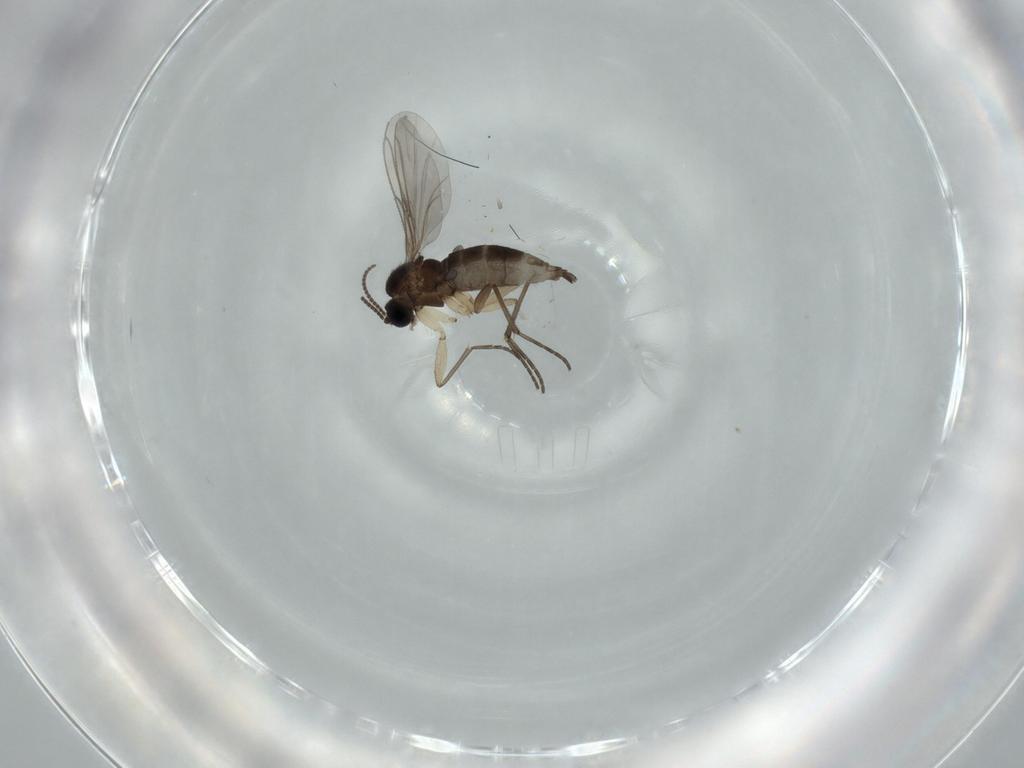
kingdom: Animalia
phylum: Arthropoda
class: Insecta
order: Diptera
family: Sciaridae
